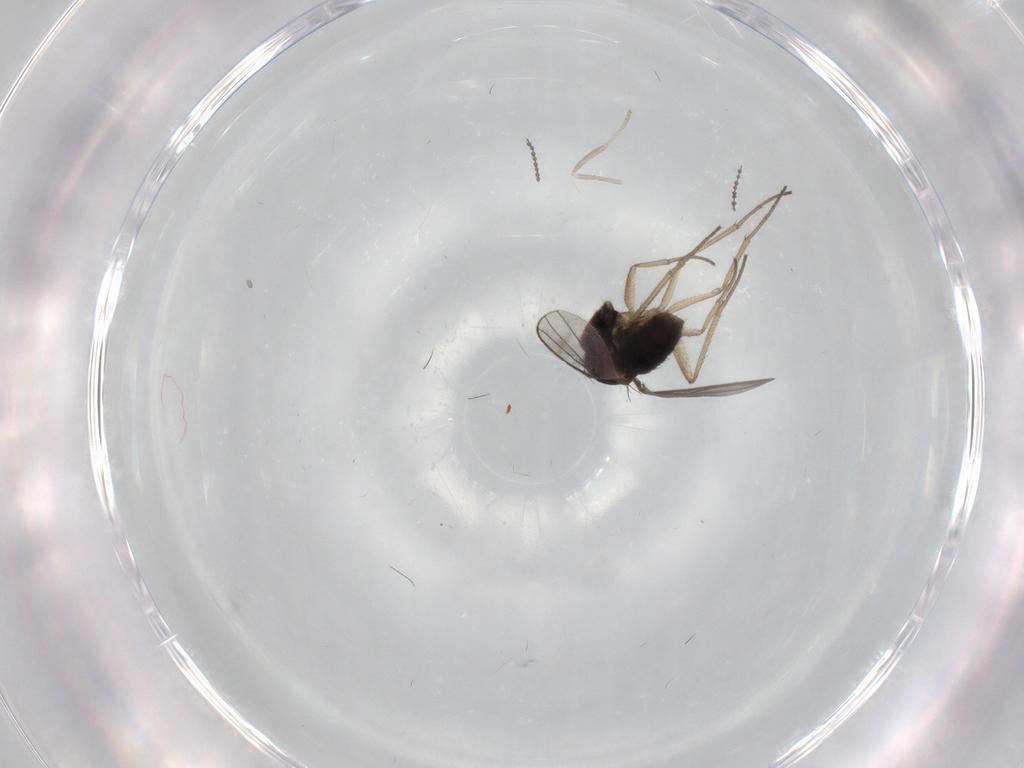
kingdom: Animalia
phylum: Arthropoda
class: Insecta
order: Diptera
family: Dolichopodidae
